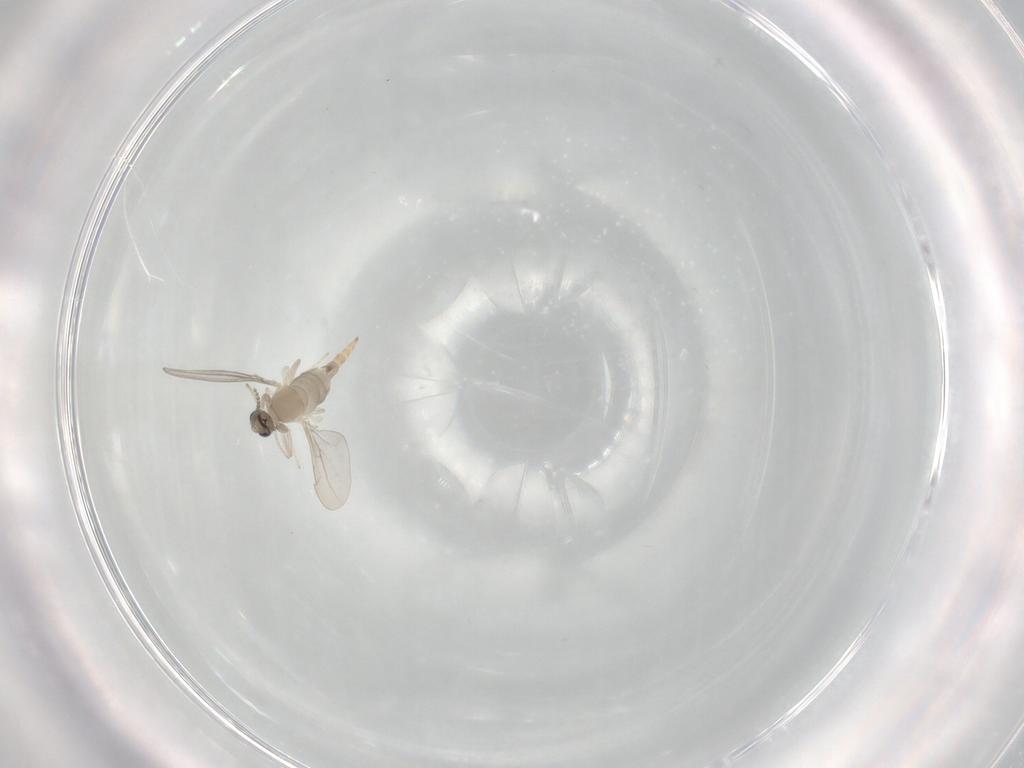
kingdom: Animalia
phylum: Arthropoda
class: Insecta
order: Diptera
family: Cecidomyiidae
